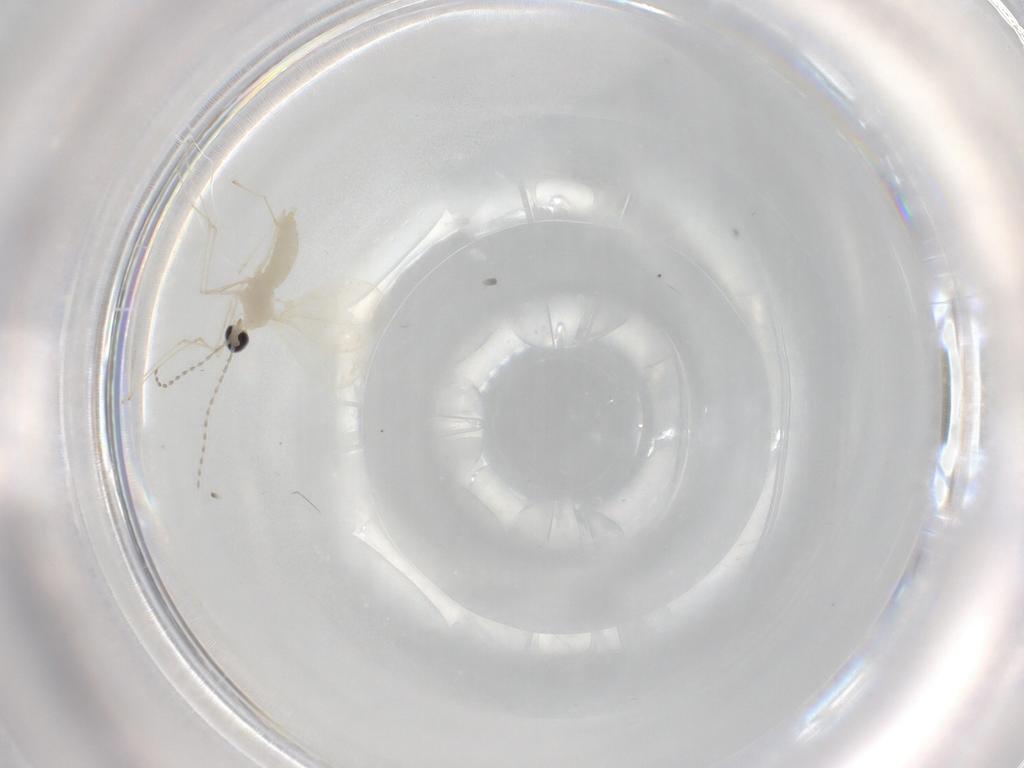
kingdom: Animalia
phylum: Arthropoda
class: Insecta
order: Diptera
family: Cecidomyiidae
